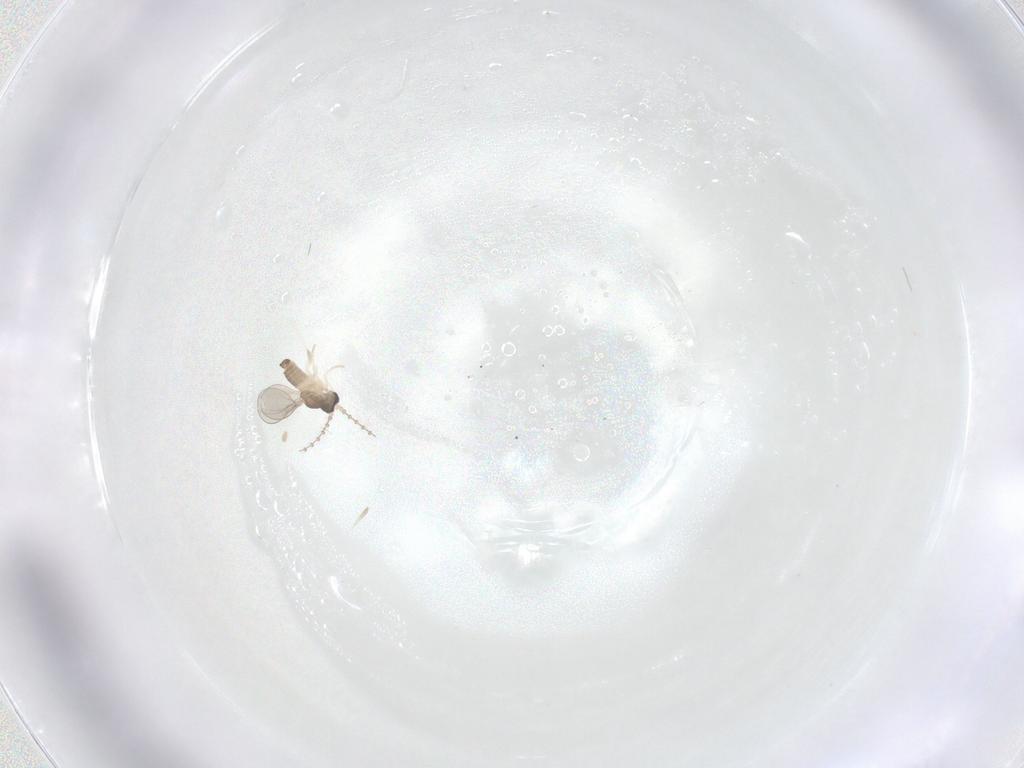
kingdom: Animalia
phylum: Arthropoda
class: Insecta
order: Diptera
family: Cecidomyiidae
